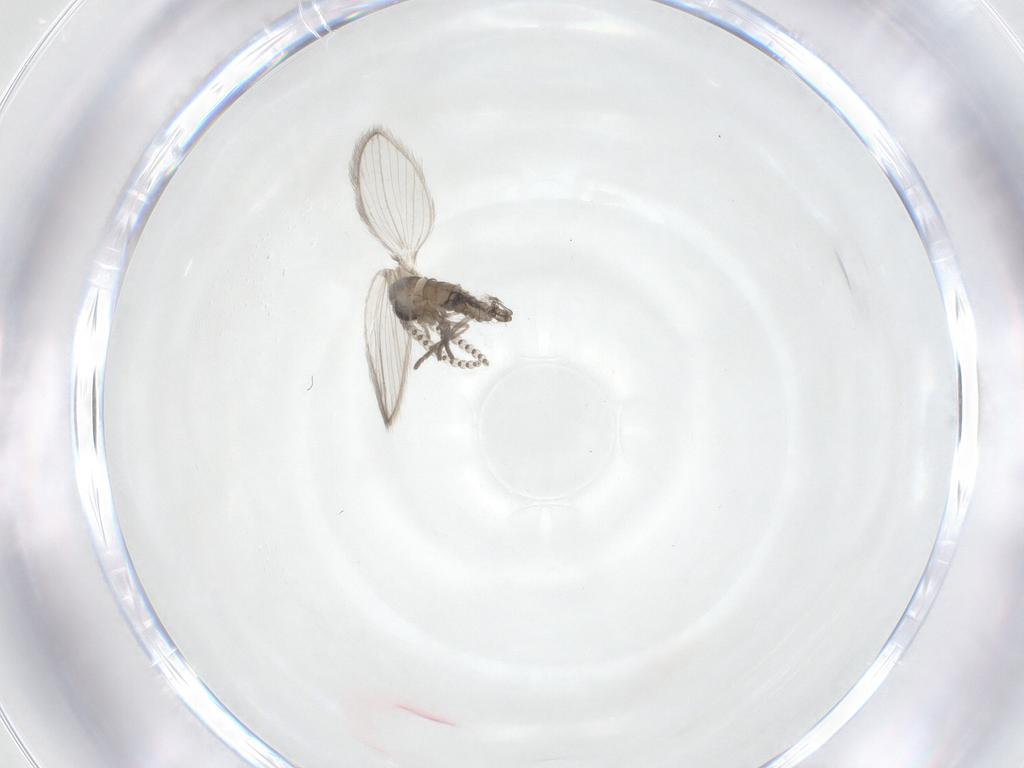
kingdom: Animalia
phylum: Arthropoda
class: Insecta
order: Diptera
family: Psychodidae
